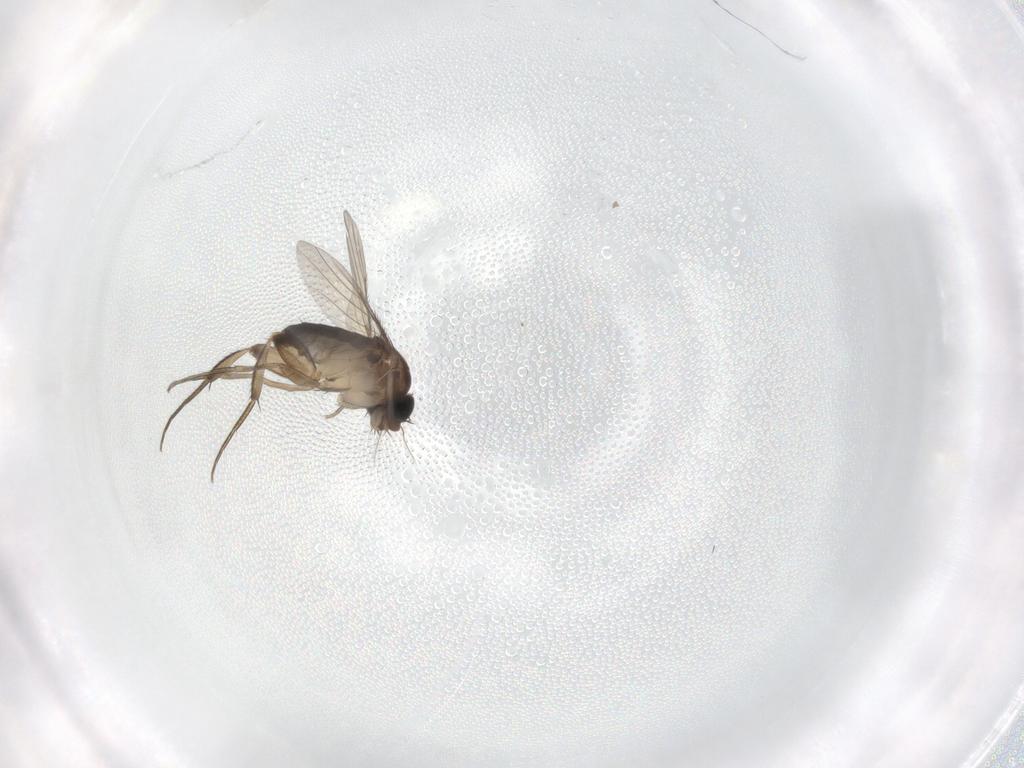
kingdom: Animalia
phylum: Arthropoda
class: Insecta
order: Diptera
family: Phoridae
